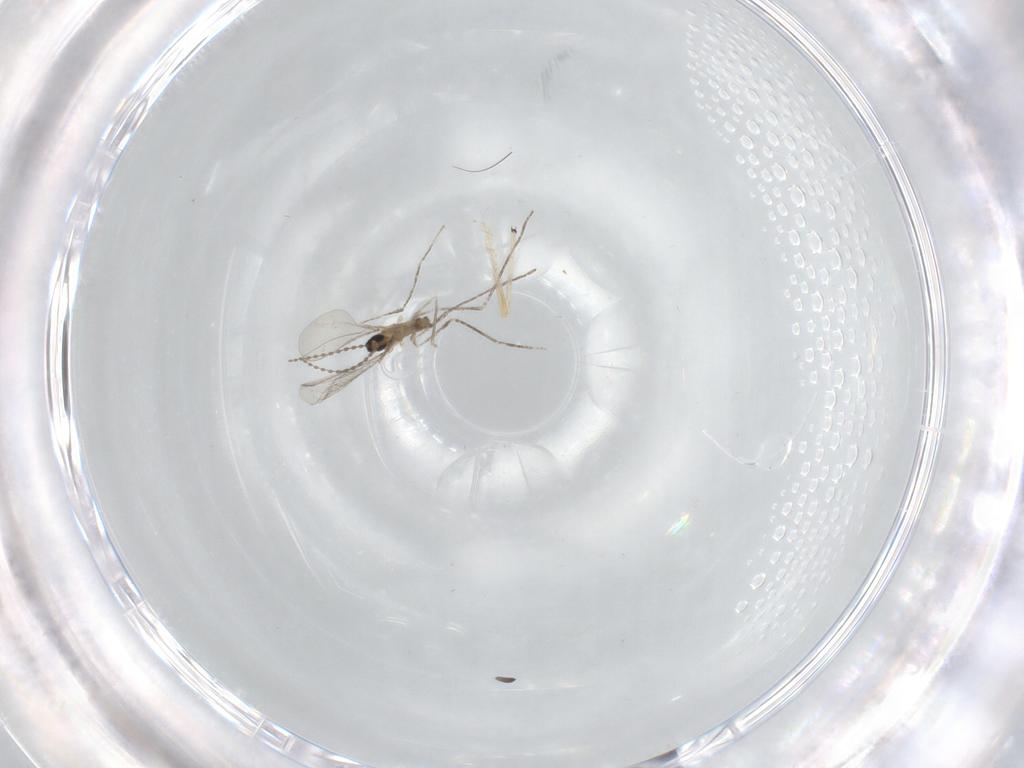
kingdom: Animalia
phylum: Arthropoda
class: Insecta
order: Diptera
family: Cecidomyiidae
